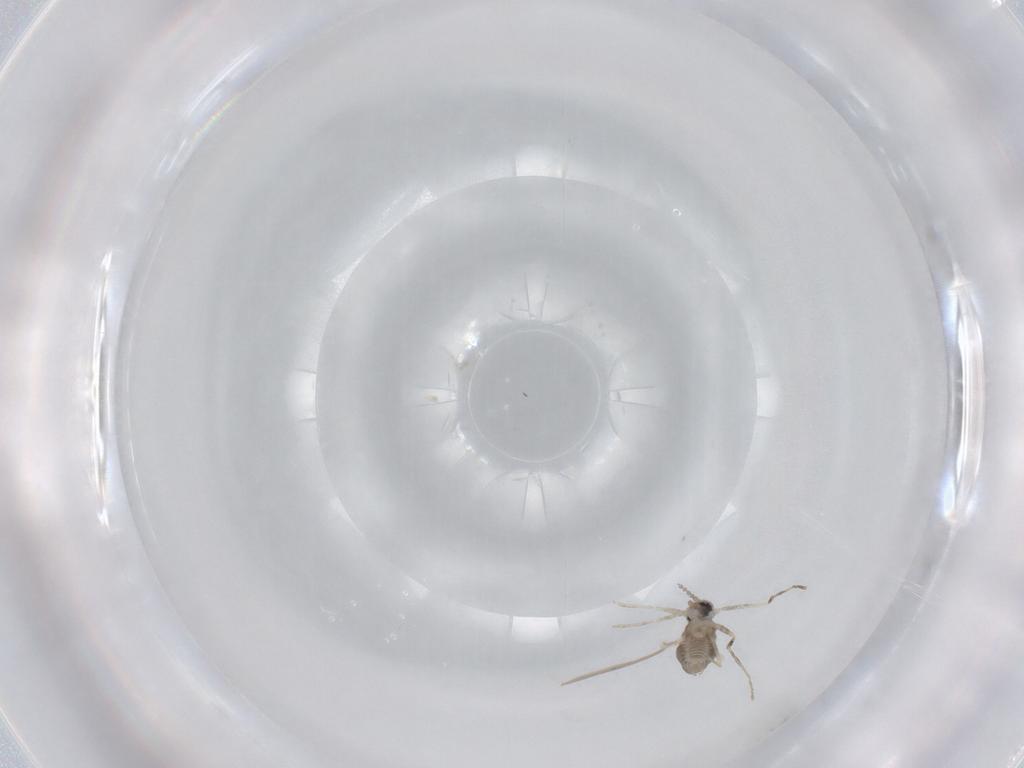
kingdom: Animalia
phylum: Arthropoda
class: Insecta
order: Diptera
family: Cecidomyiidae
